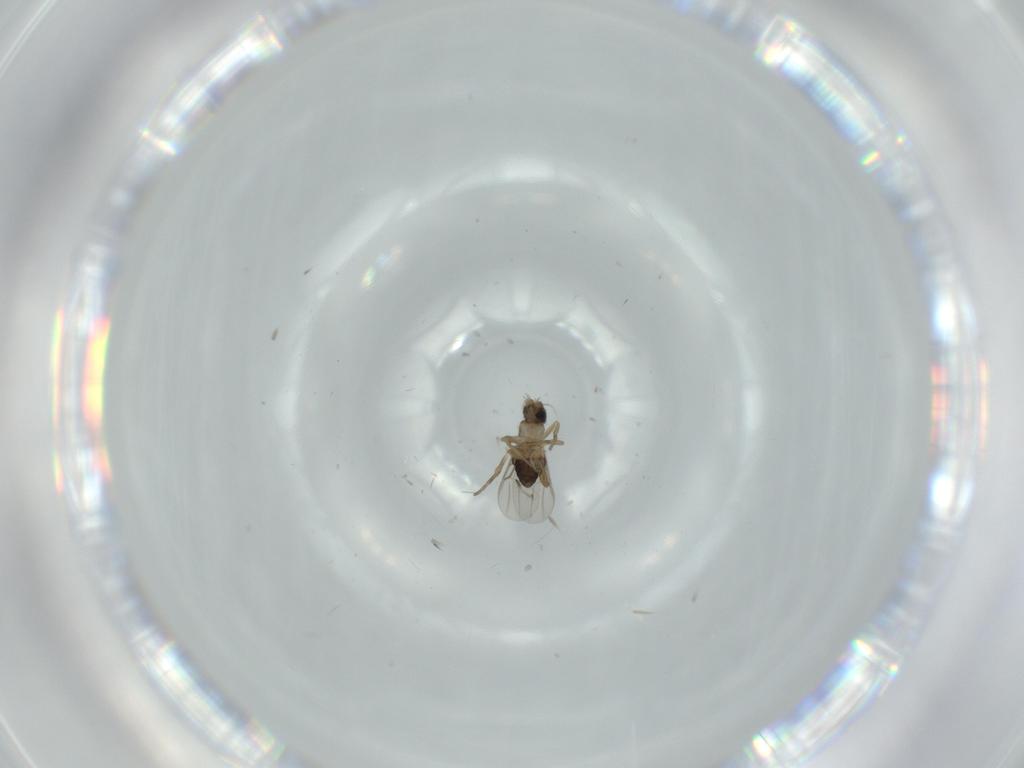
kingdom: Animalia
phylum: Arthropoda
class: Insecta
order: Diptera
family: Phoridae
